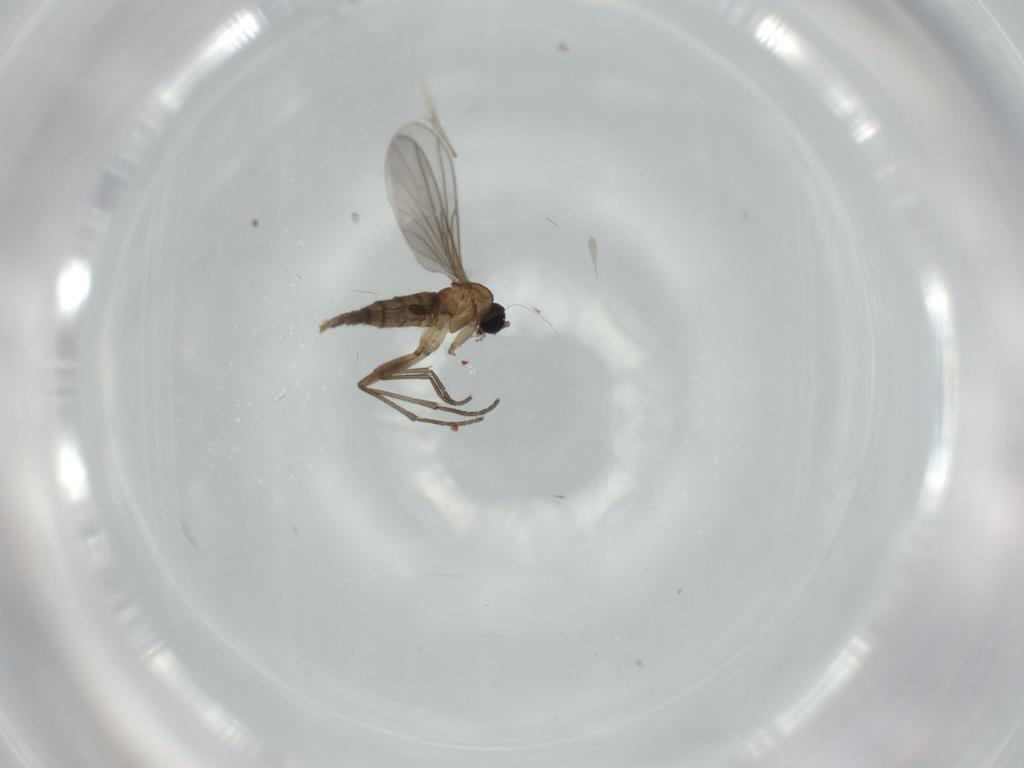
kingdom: Animalia
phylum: Arthropoda
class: Insecta
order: Diptera
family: Sciaridae
